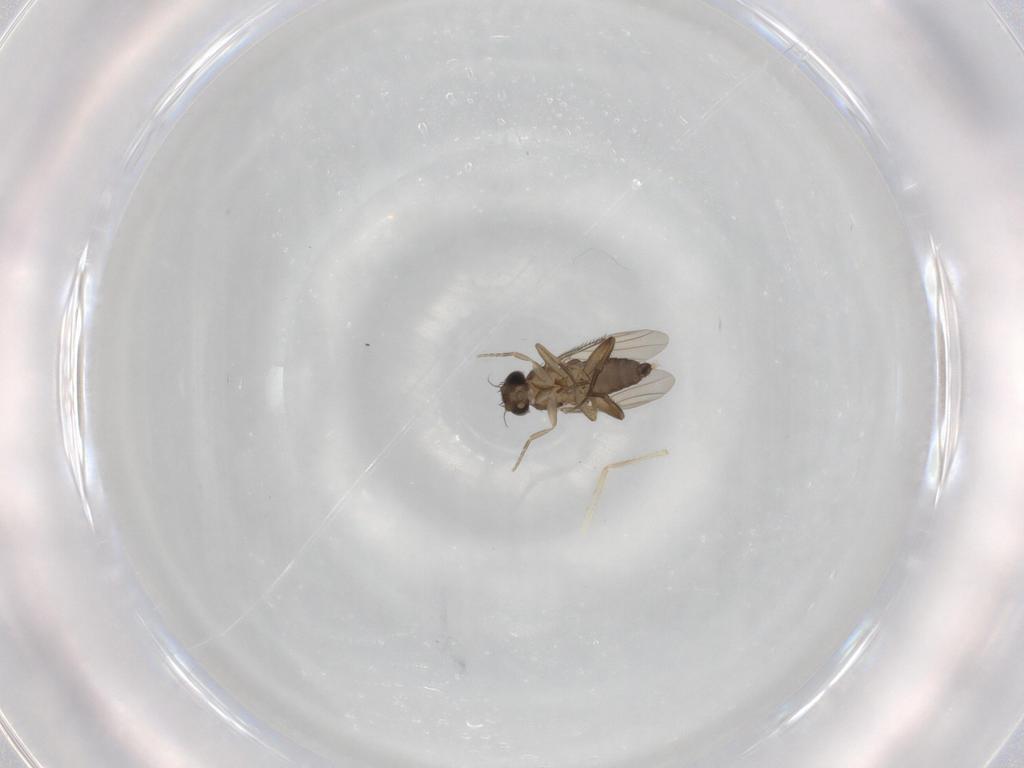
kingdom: Animalia
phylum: Arthropoda
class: Insecta
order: Diptera
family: Phoridae
